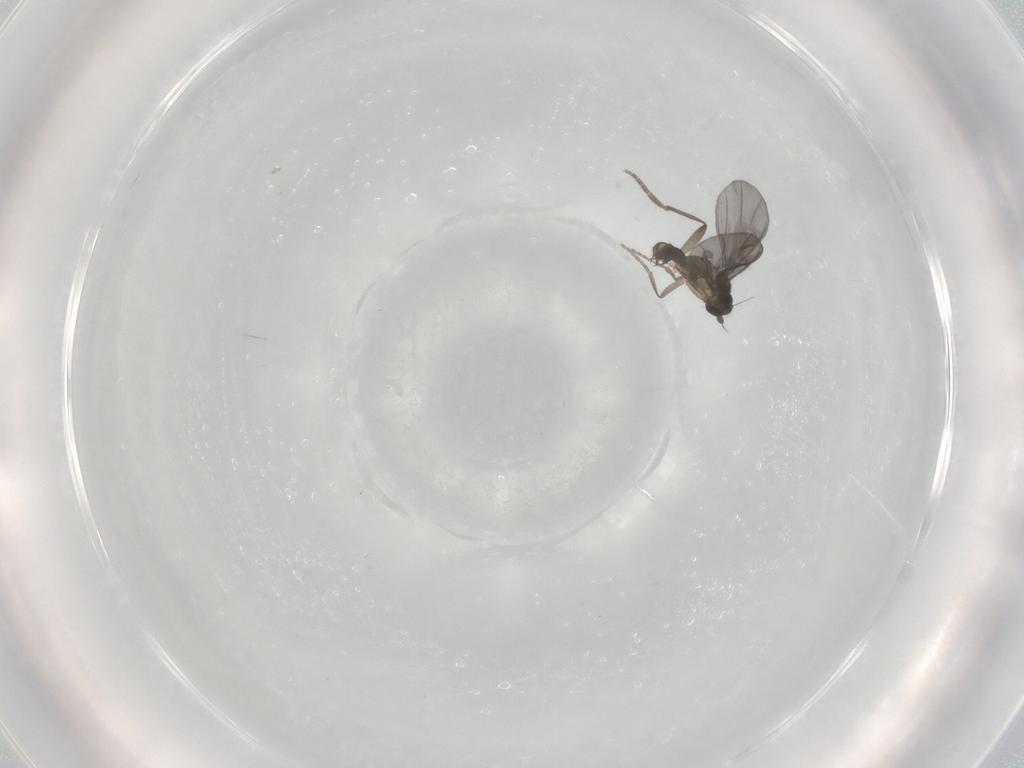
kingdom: Animalia
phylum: Arthropoda
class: Insecta
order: Diptera
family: Phoridae
